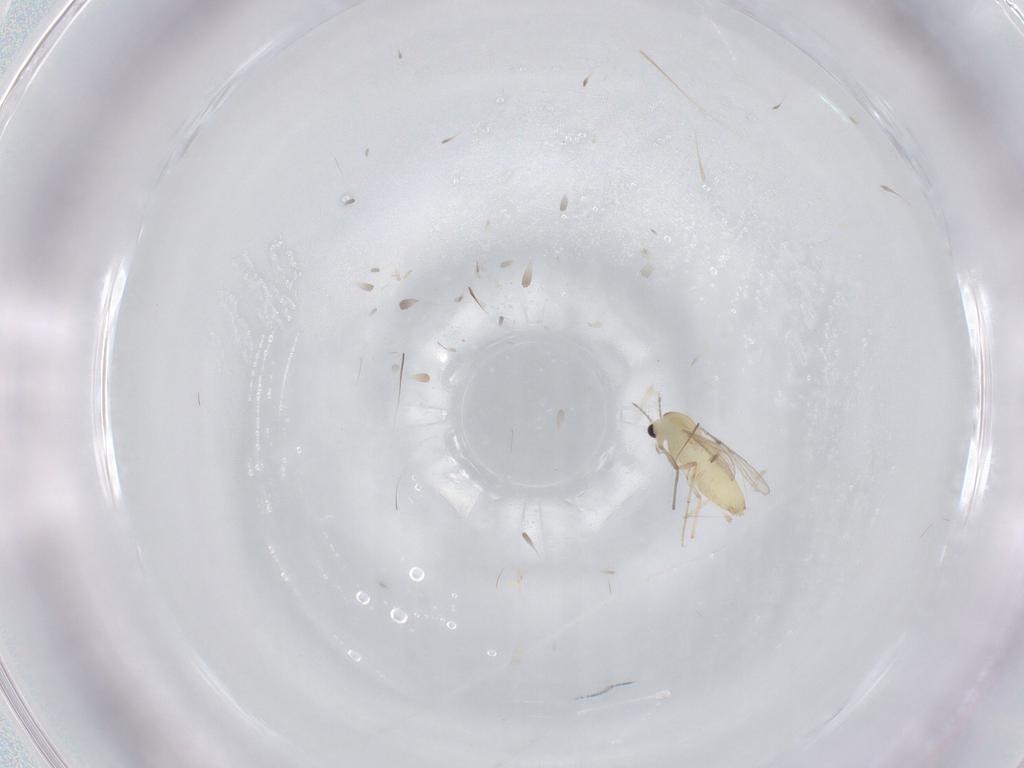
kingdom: Animalia
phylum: Arthropoda
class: Insecta
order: Diptera
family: Chironomidae
